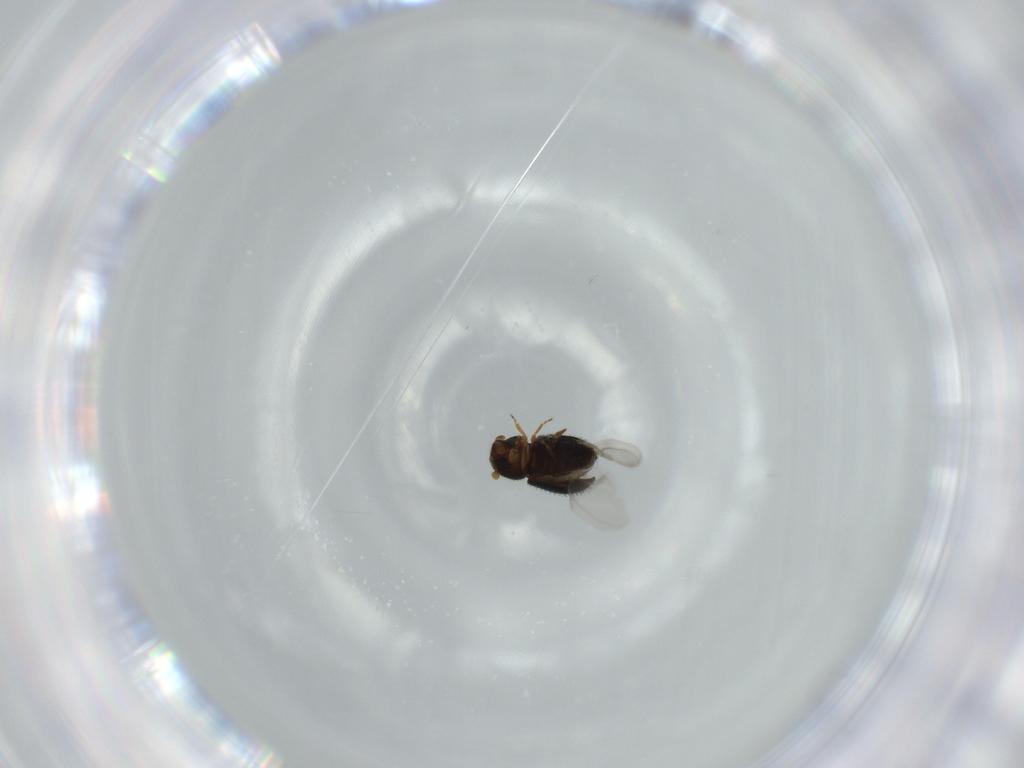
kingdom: Animalia
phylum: Arthropoda
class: Insecta
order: Coleoptera
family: Curculionidae
